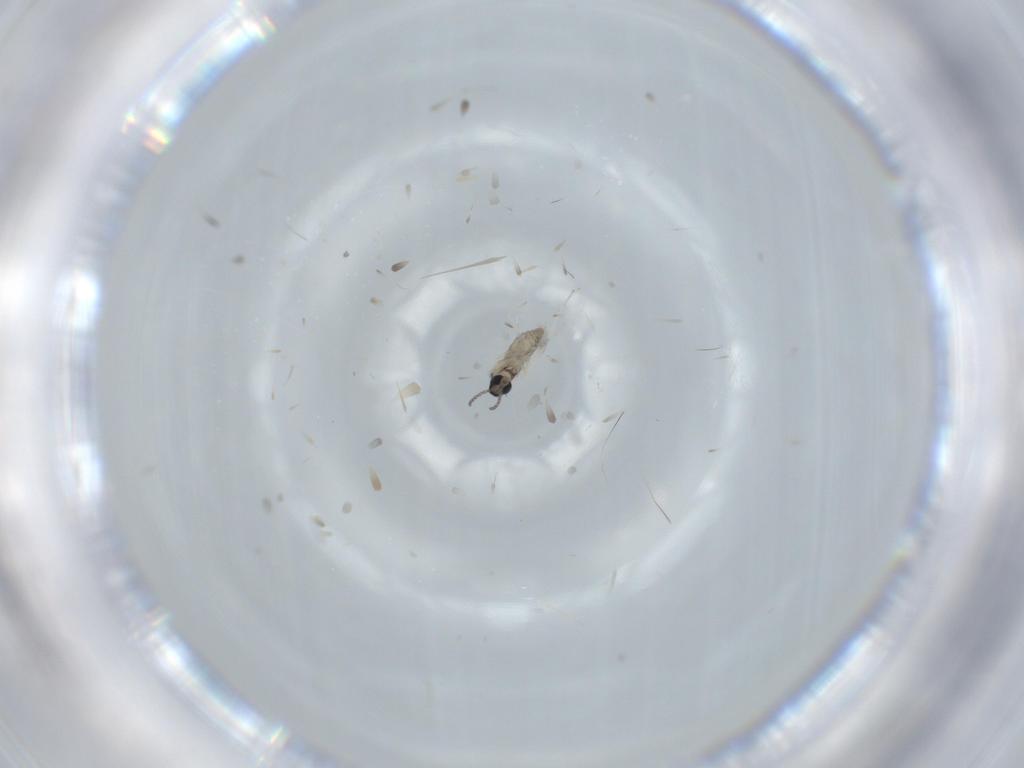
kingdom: Animalia
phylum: Arthropoda
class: Insecta
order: Diptera
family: Cecidomyiidae
